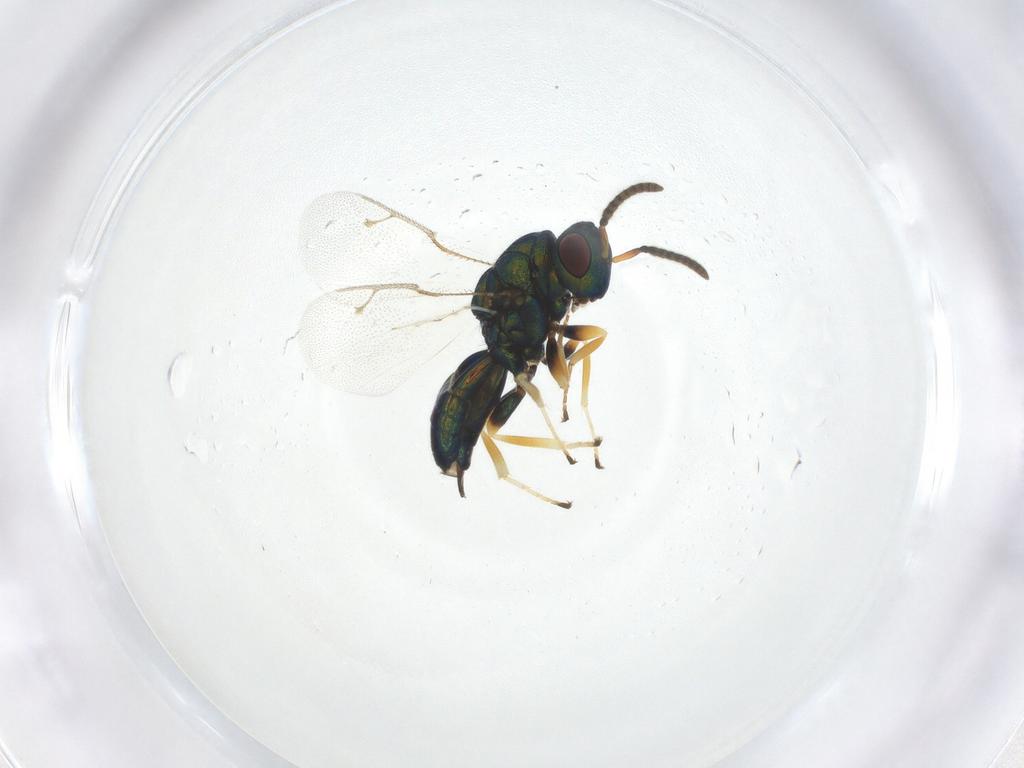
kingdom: Animalia
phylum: Arthropoda
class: Insecta
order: Hymenoptera
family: Pteromalidae
